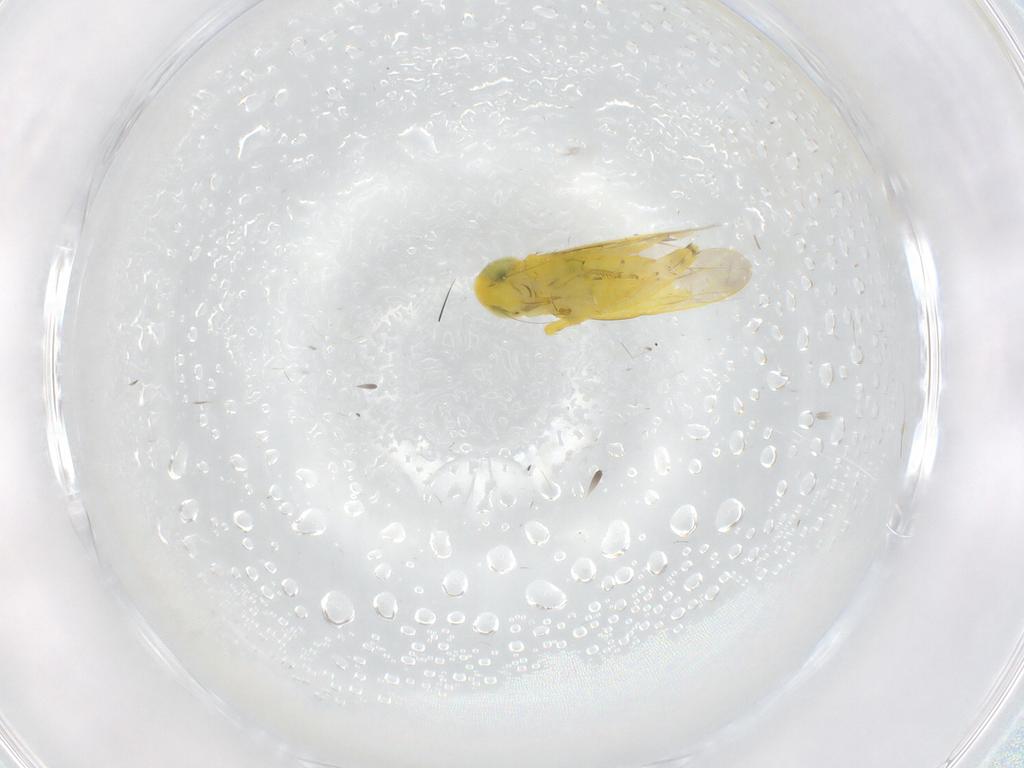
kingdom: Animalia
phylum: Arthropoda
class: Insecta
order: Hemiptera
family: Cicadellidae
